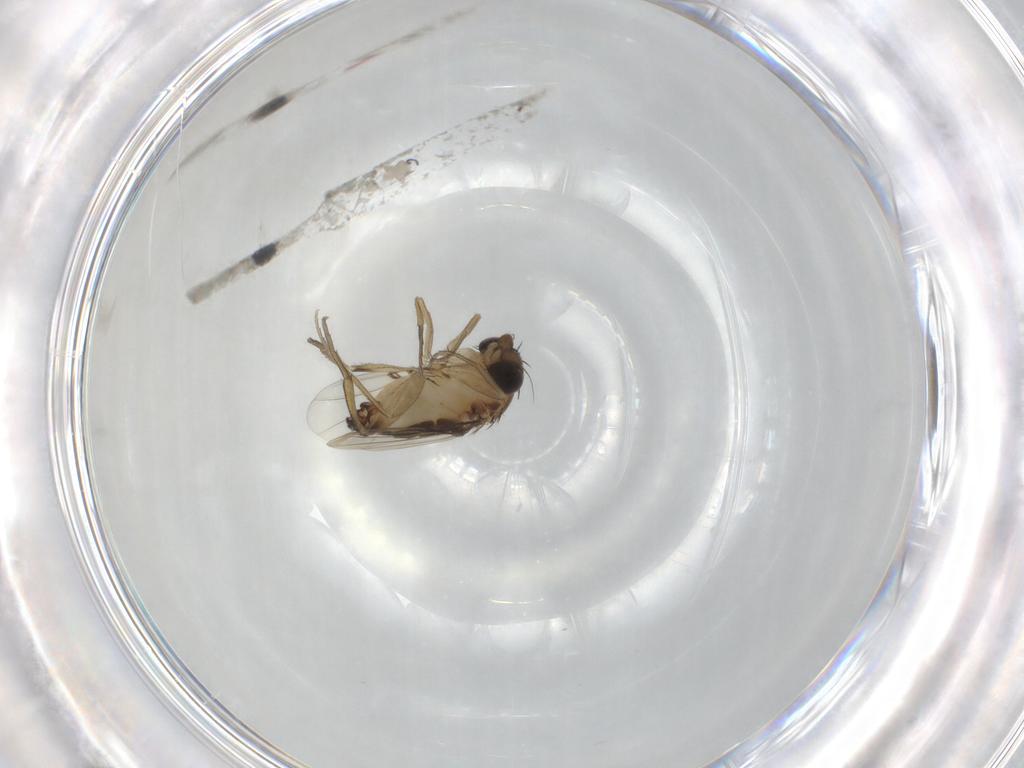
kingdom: Animalia
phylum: Arthropoda
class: Insecta
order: Diptera
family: Phoridae
